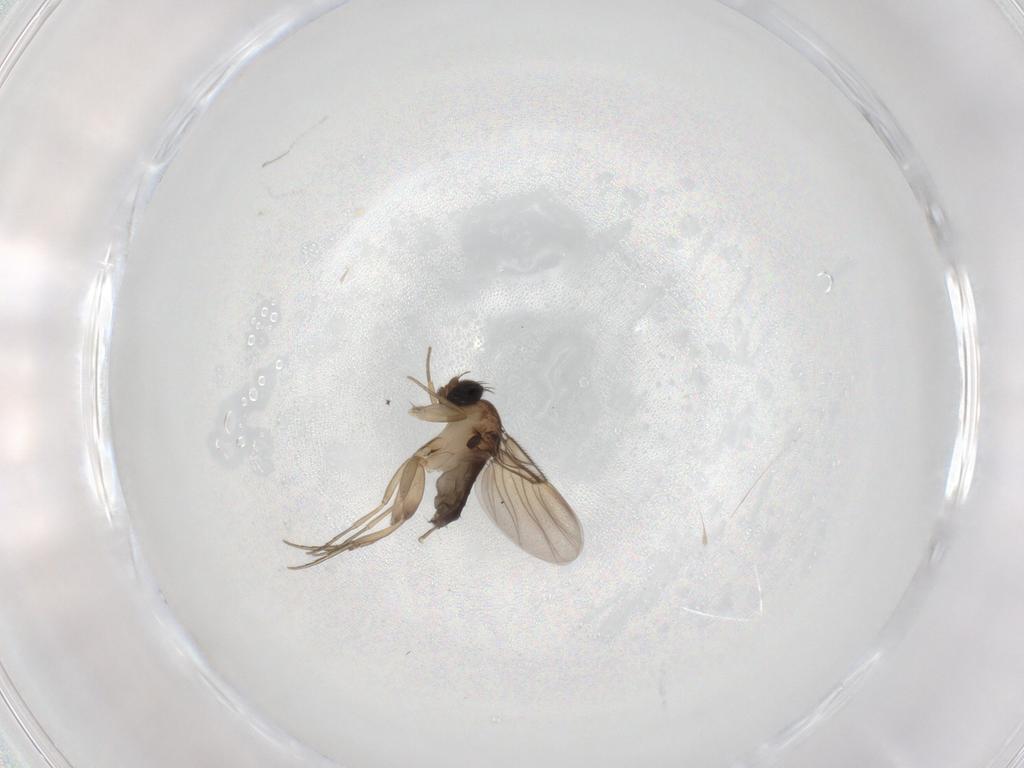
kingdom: Animalia
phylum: Arthropoda
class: Insecta
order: Diptera
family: Phoridae
